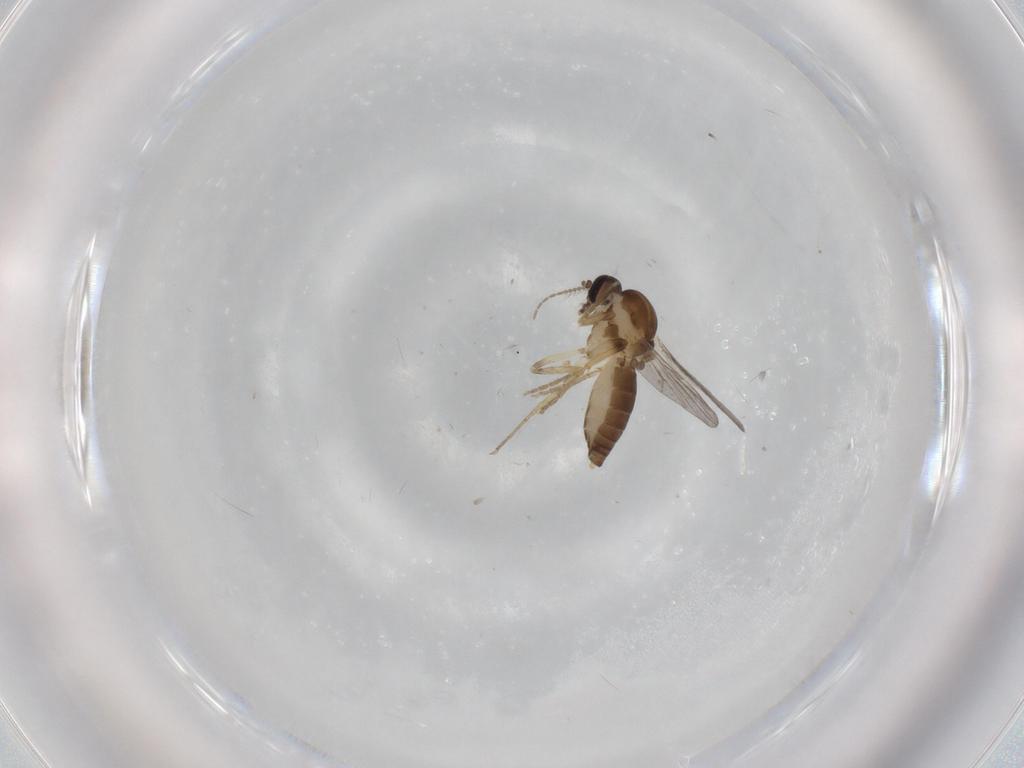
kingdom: Animalia
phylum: Arthropoda
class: Insecta
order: Diptera
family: Ceratopogonidae
